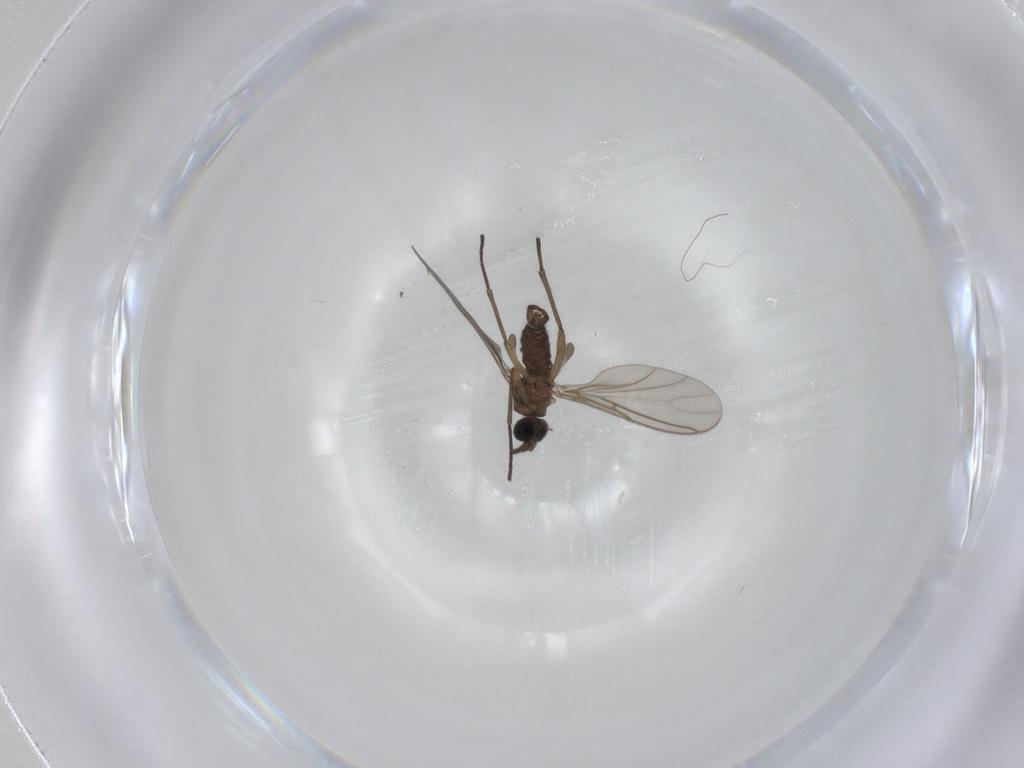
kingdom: Animalia
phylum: Arthropoda
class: Insecta
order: Diptera
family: Sciaridae
